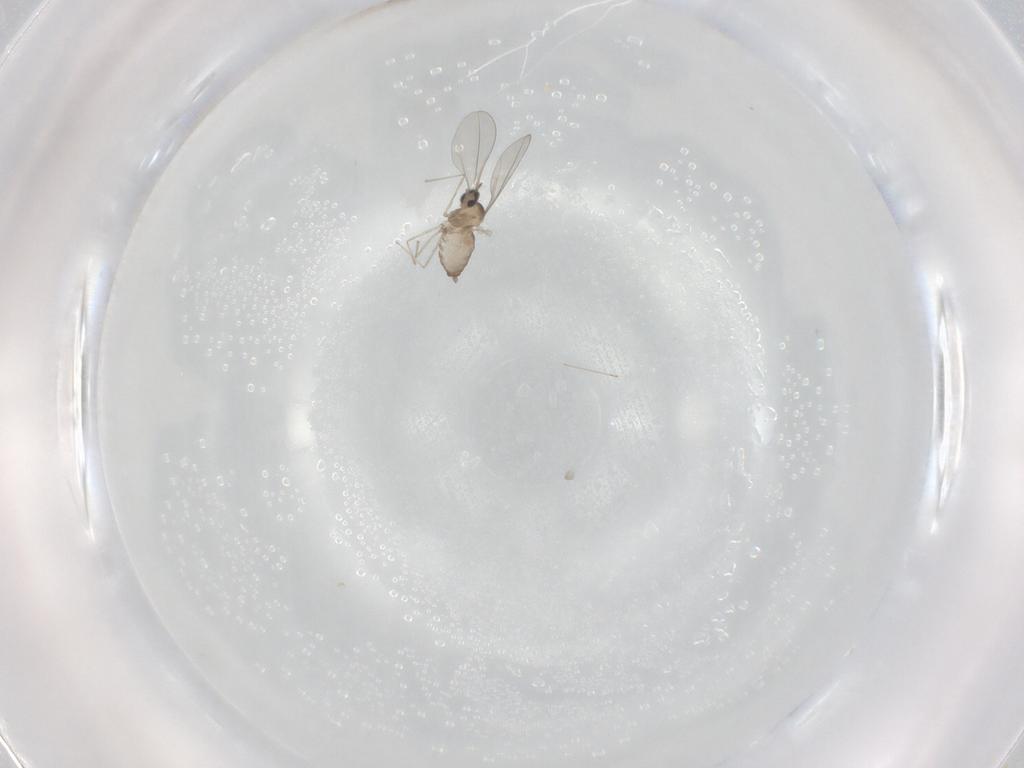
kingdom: Animalia
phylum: Arthropoda
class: Insecta
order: Diptera
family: Cecidomyiidae
